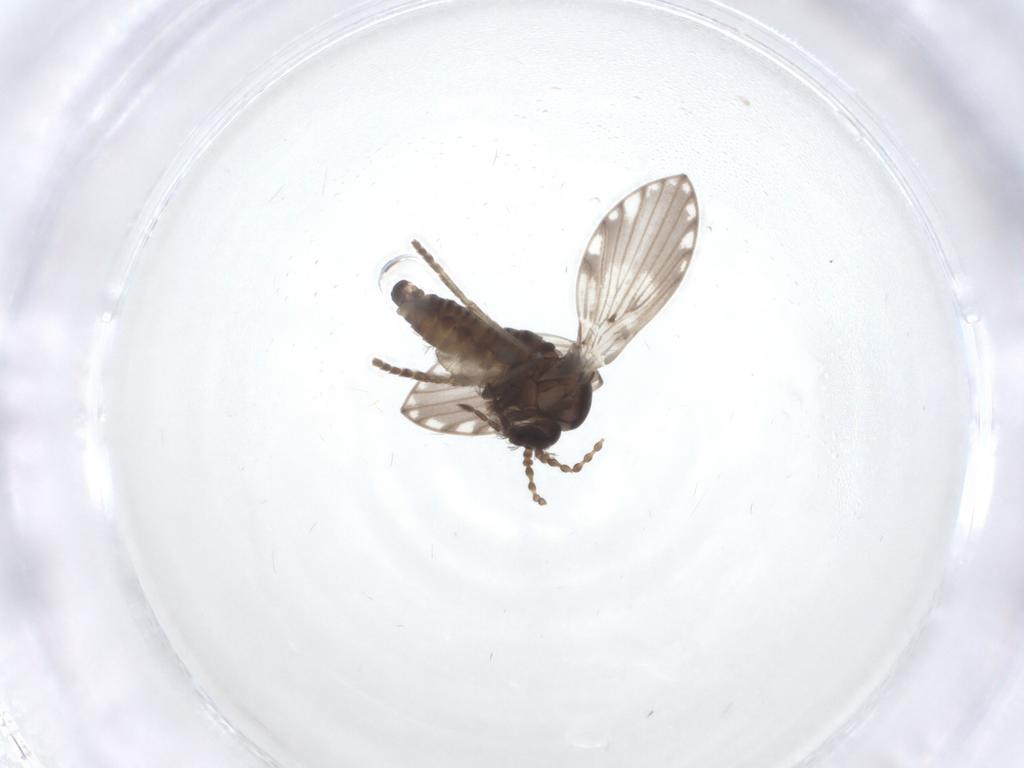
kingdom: Animalia
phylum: Arthropoda
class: Insecta
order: Diptera
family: Psychodidae
